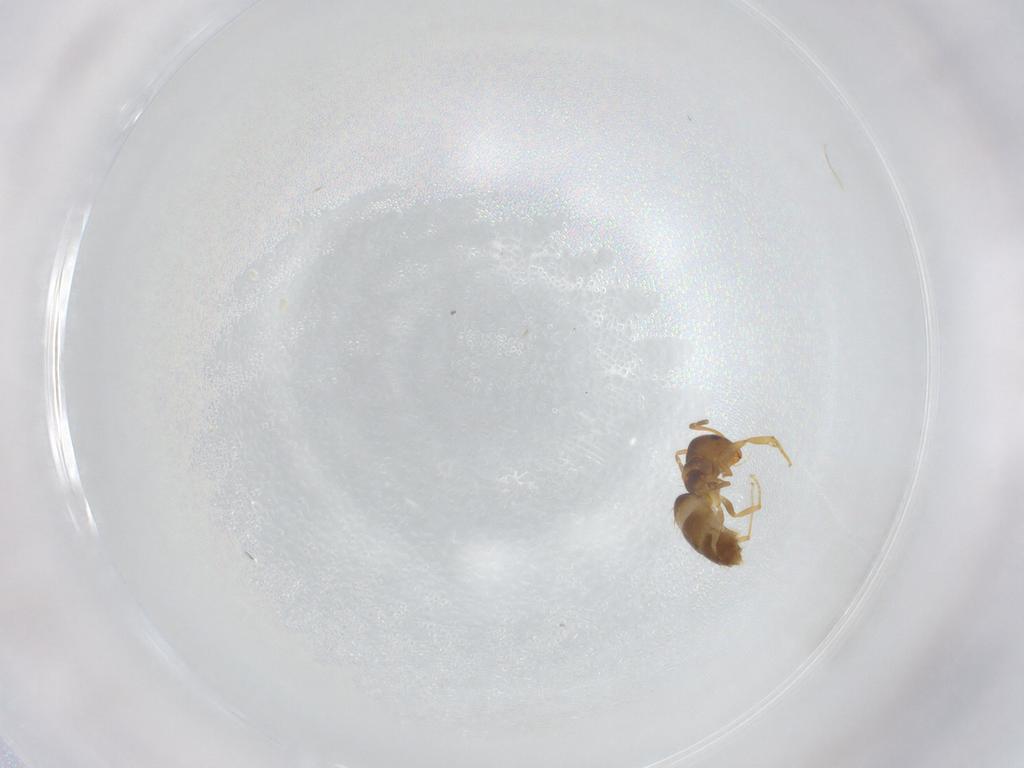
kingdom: Animalia
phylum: Arthropoda
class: Insecta
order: Hymenoptera
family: Formicidae
